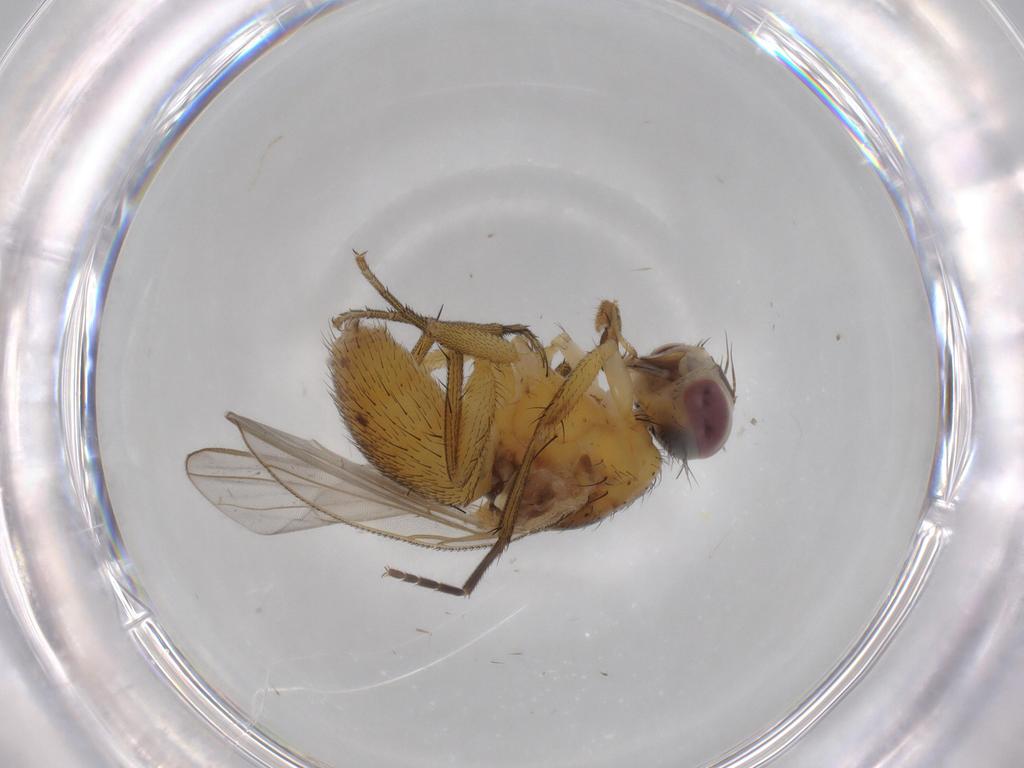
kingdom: Animalia
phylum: Arthropoda
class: Insecta
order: Diptera
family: Muscidae
